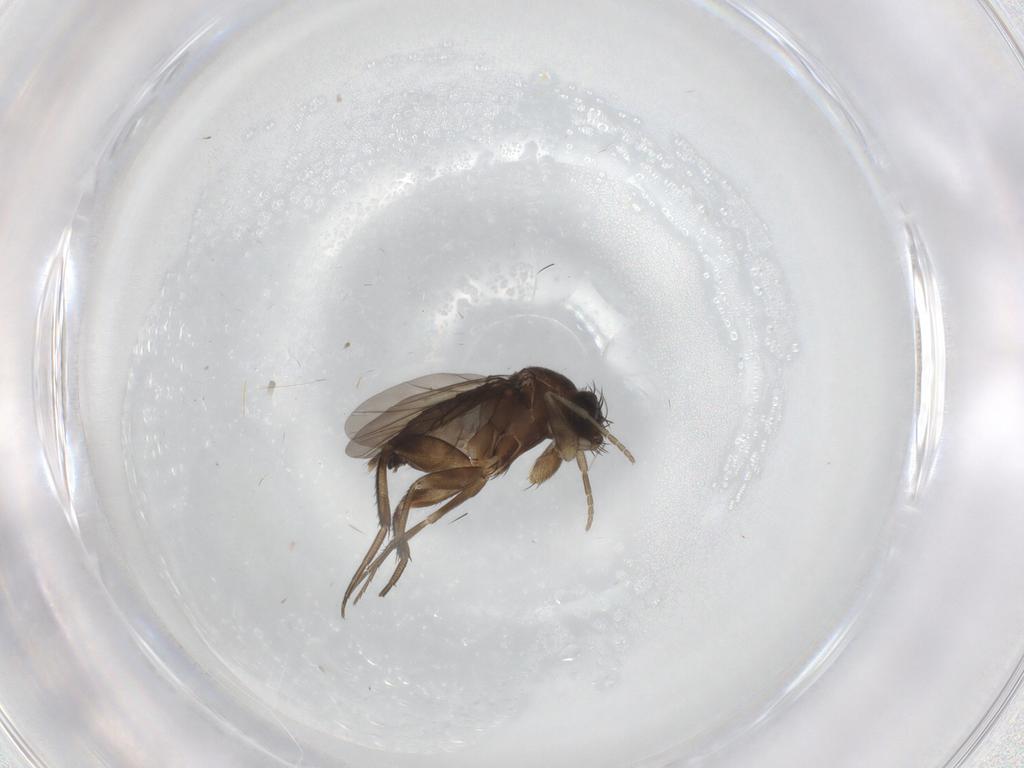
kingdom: Animalia
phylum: Arthropoda
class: Insecta
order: Diptera
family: Phoridae
